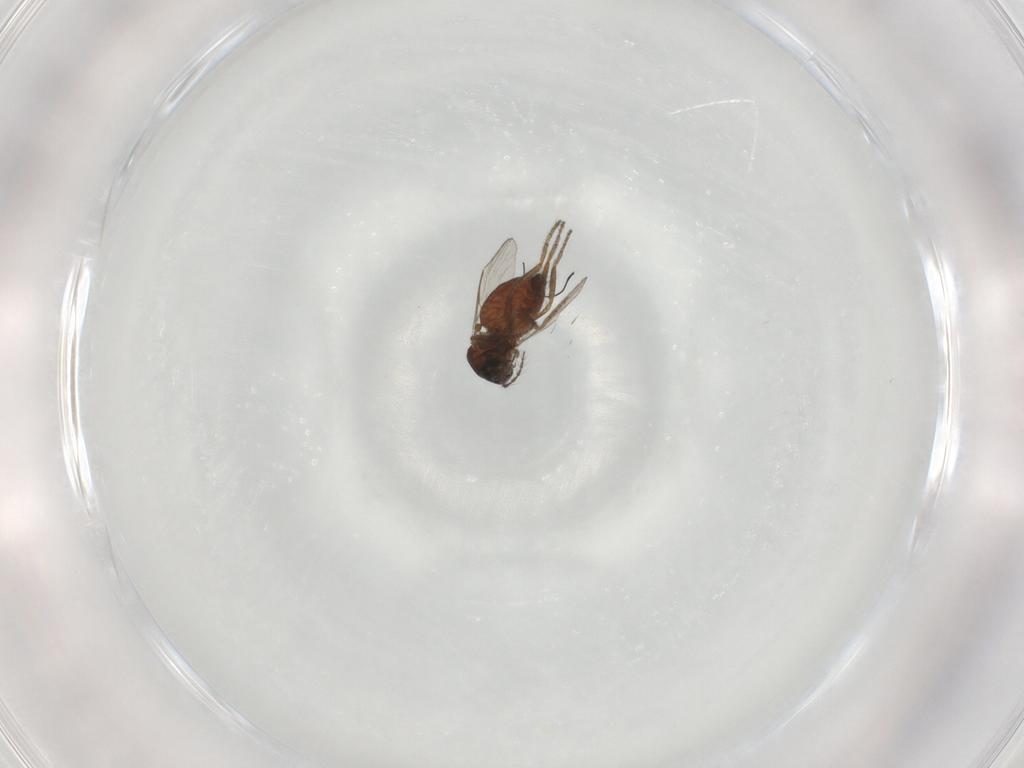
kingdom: Animalia
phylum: Arthropoda
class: Insecta
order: Diptera
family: Ceratopogonidae
